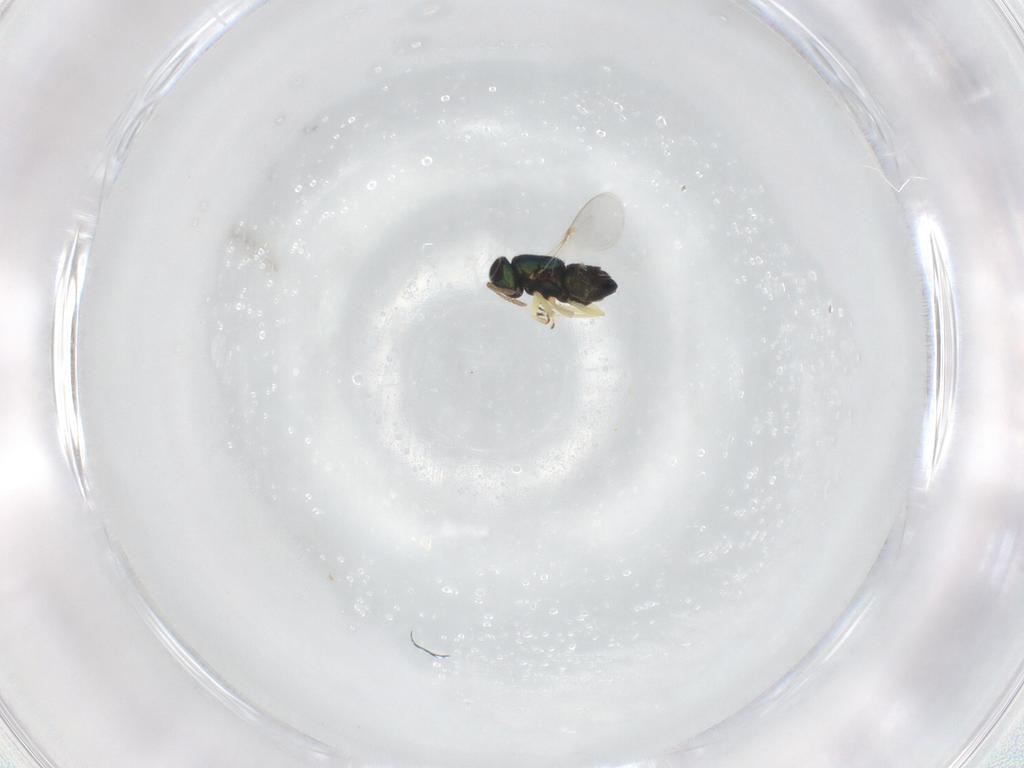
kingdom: Animalia
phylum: Arthropoda
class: Insecta
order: Hymenoptera
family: Encyrtidae
